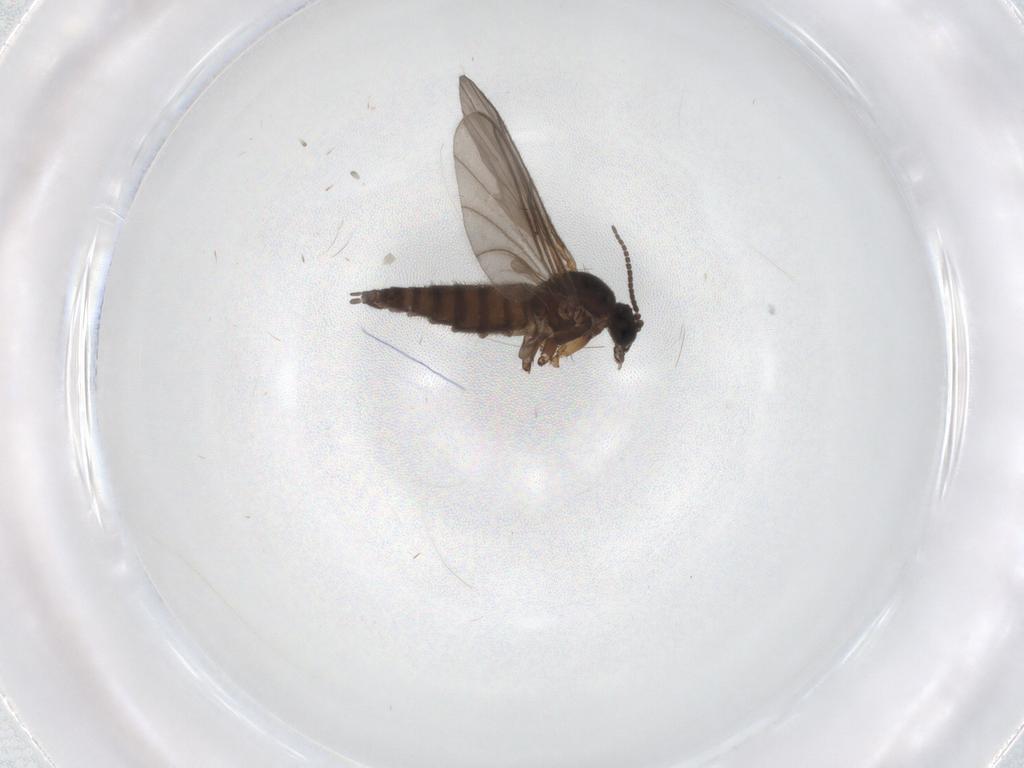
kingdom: Animalia
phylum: Arthropoda
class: Insecta
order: Diptera
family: Sciaridae
